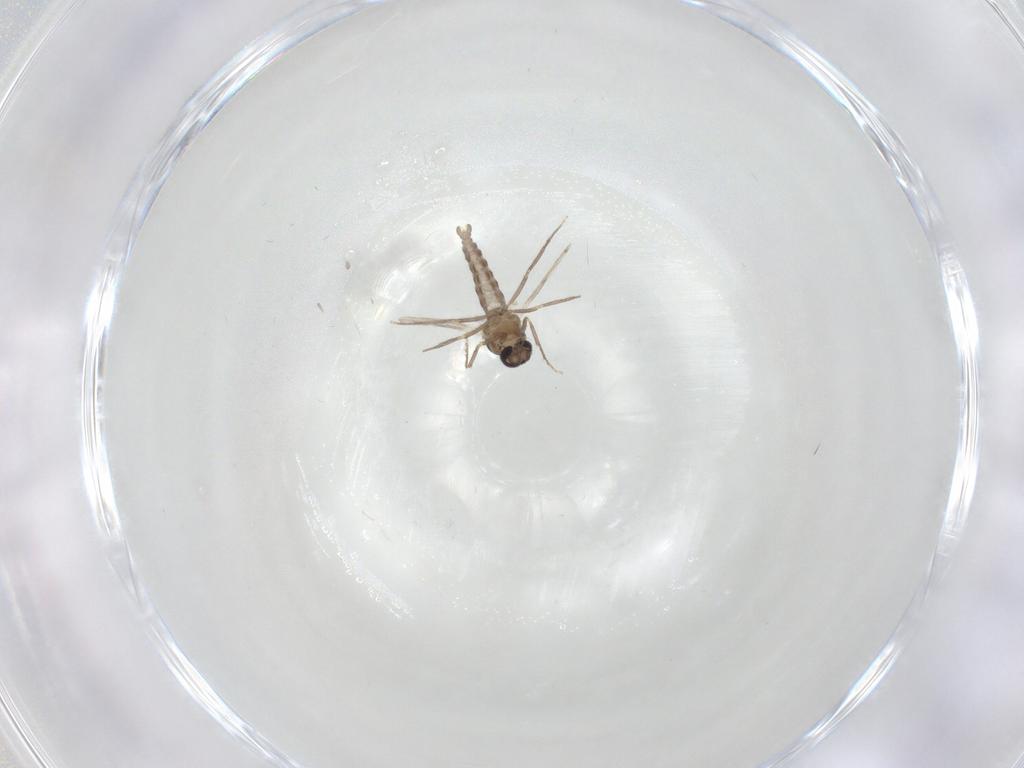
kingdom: Animalia
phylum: Arthropoda
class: Insecta
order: Diptera
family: Ceratopogonidae
